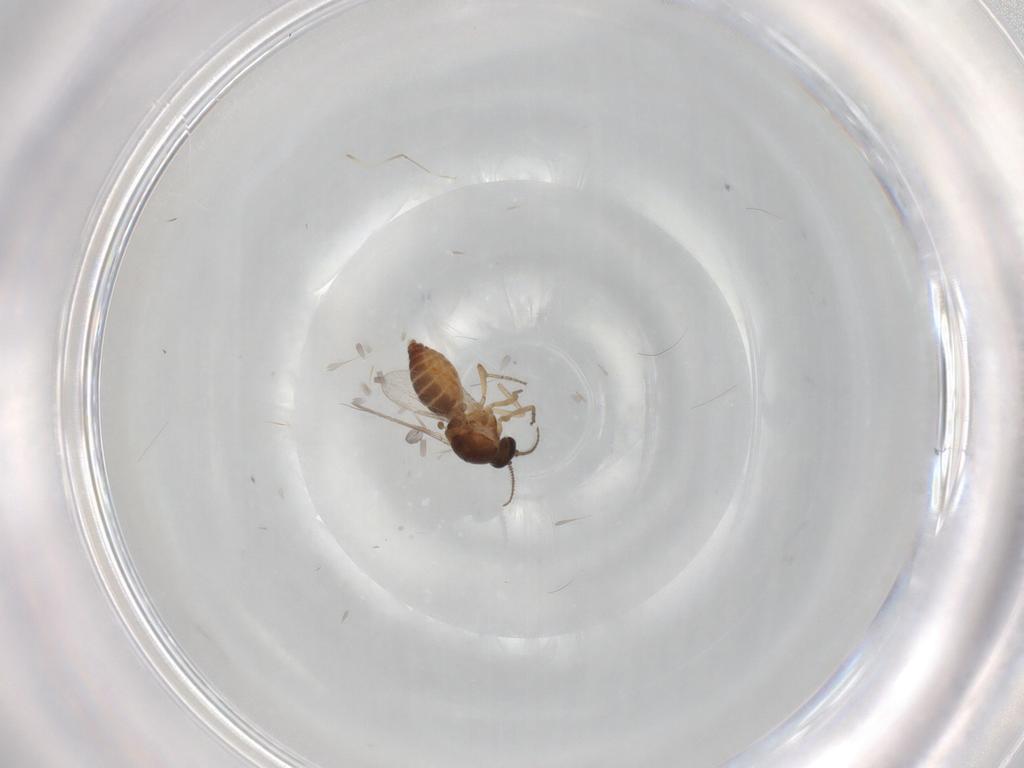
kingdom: Animalia
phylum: Arthropoda
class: Insecta
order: Diptera
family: Ceratopogonidae
